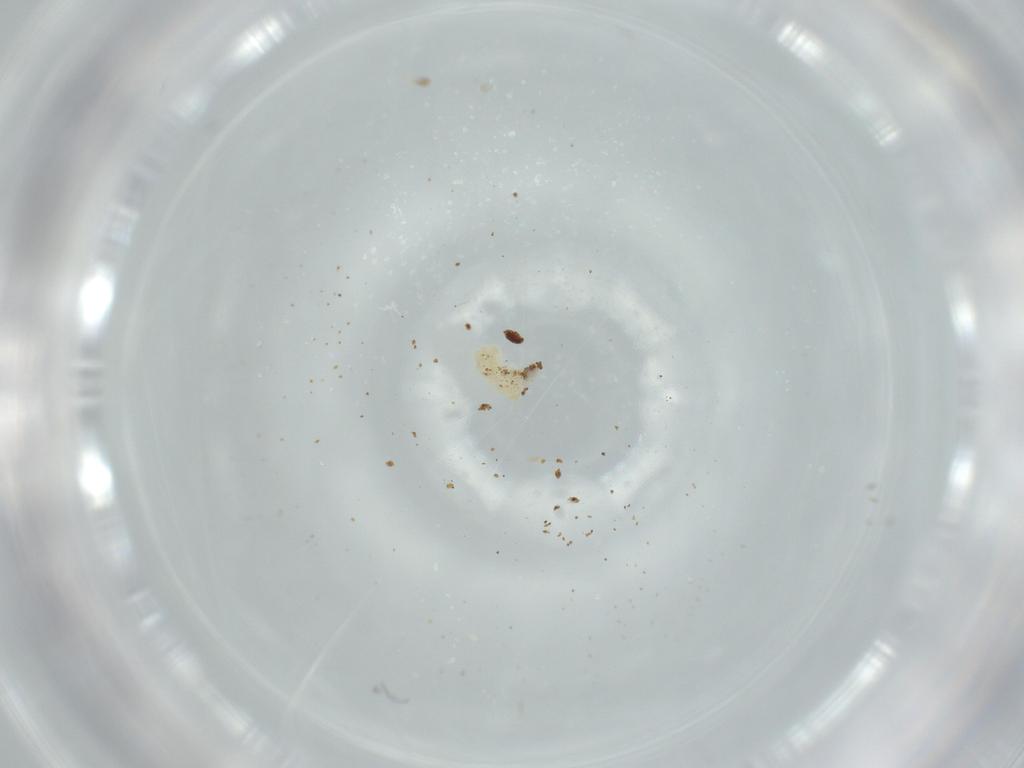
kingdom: Animalia
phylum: Arthropoda
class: Insecta
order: Diptera
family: Cecidomyiidae
